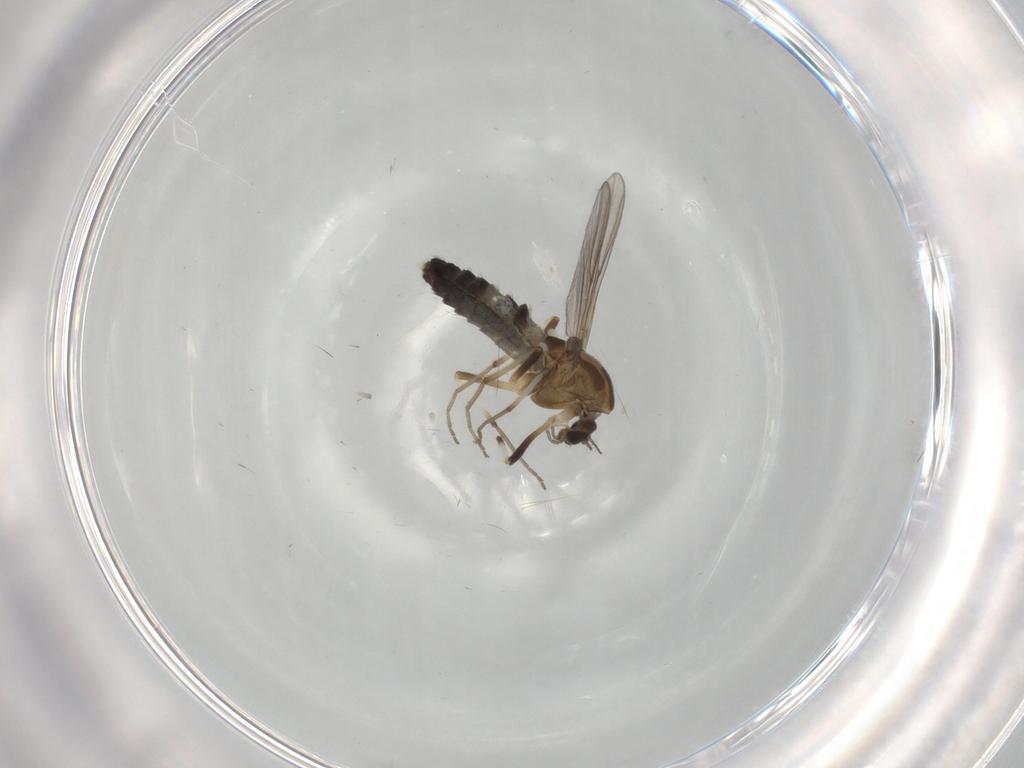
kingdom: Animalia
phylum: Arthropoda
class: Insecta
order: Diptera
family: Chironomidae
